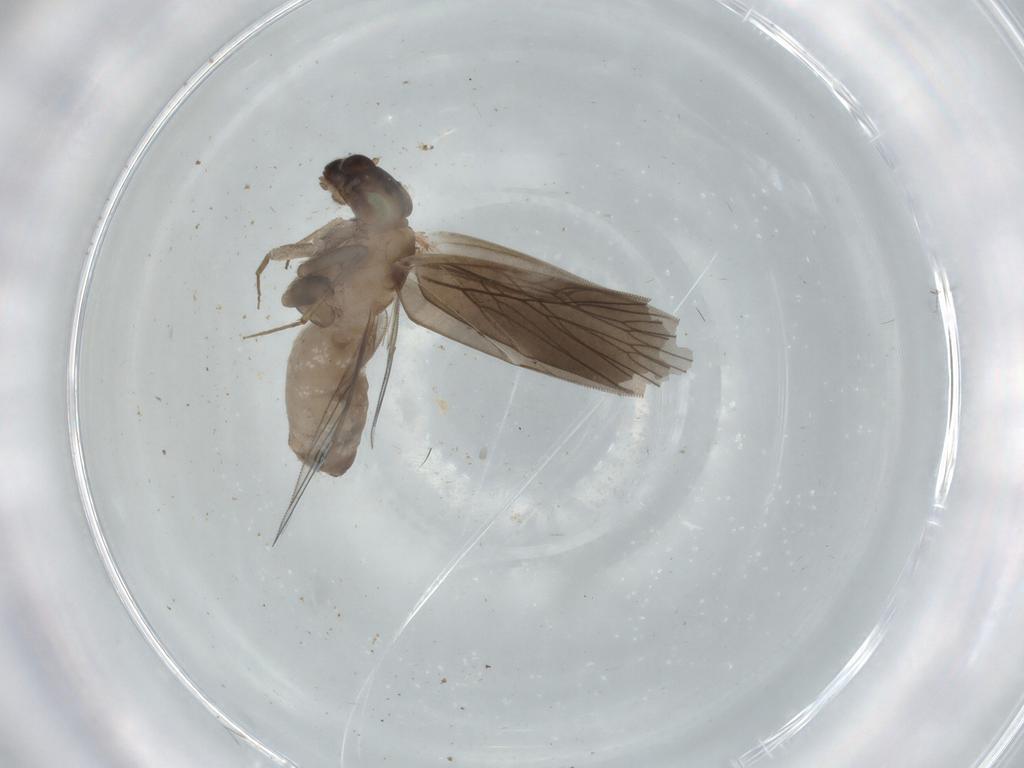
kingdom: Animalia
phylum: Arthropoda
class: Insecta
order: Psocodea
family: Lepidopsocidae
